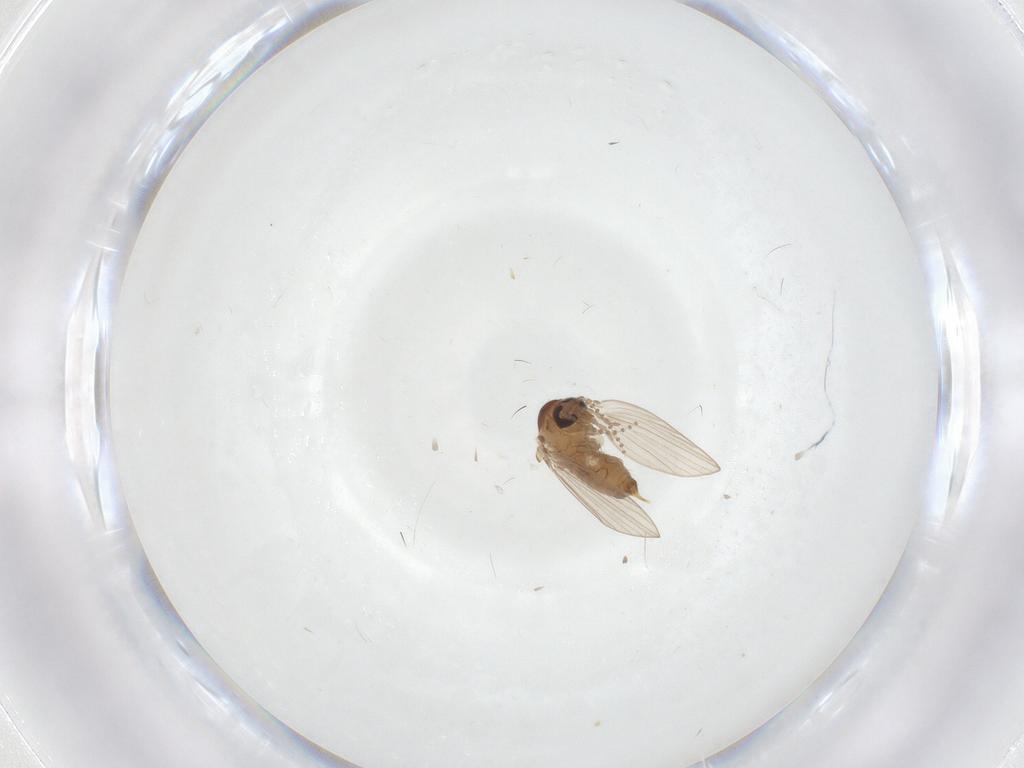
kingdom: Animalia
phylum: Arthropoda
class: Insecta
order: Diptera
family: Psychodidae
